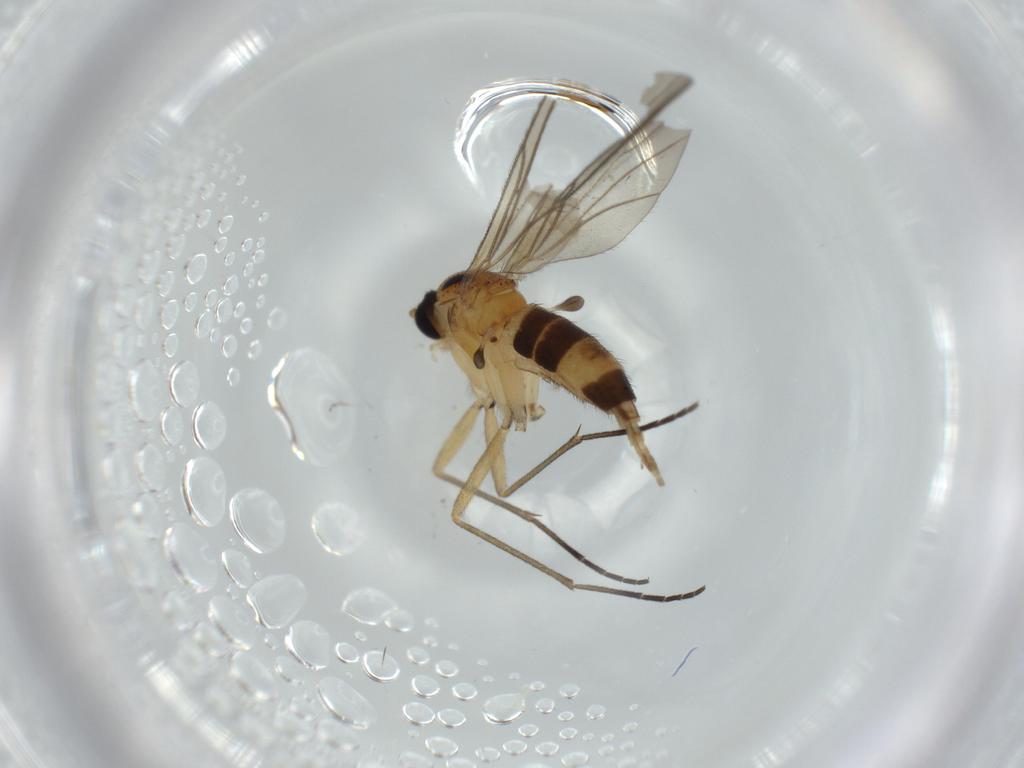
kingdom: Animalia
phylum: Arthropoda
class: Insecta
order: Diptera
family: Sciaridae
